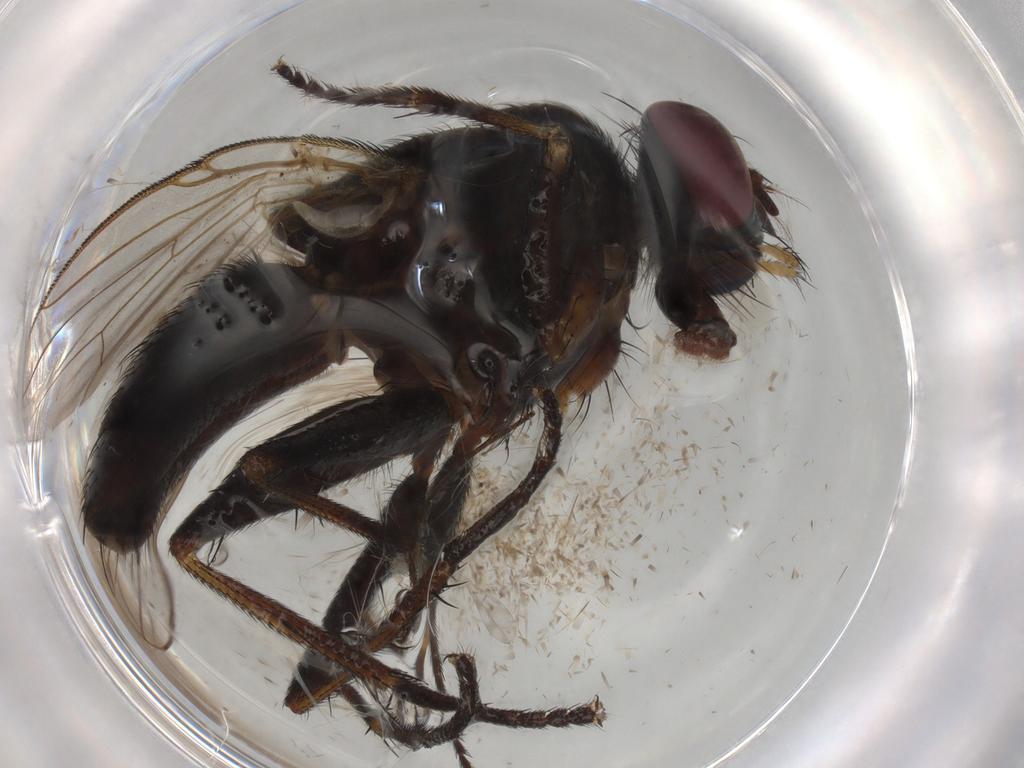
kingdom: Animalia
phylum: Arthropoda
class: Insecta
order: Diptera
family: Muscidae
